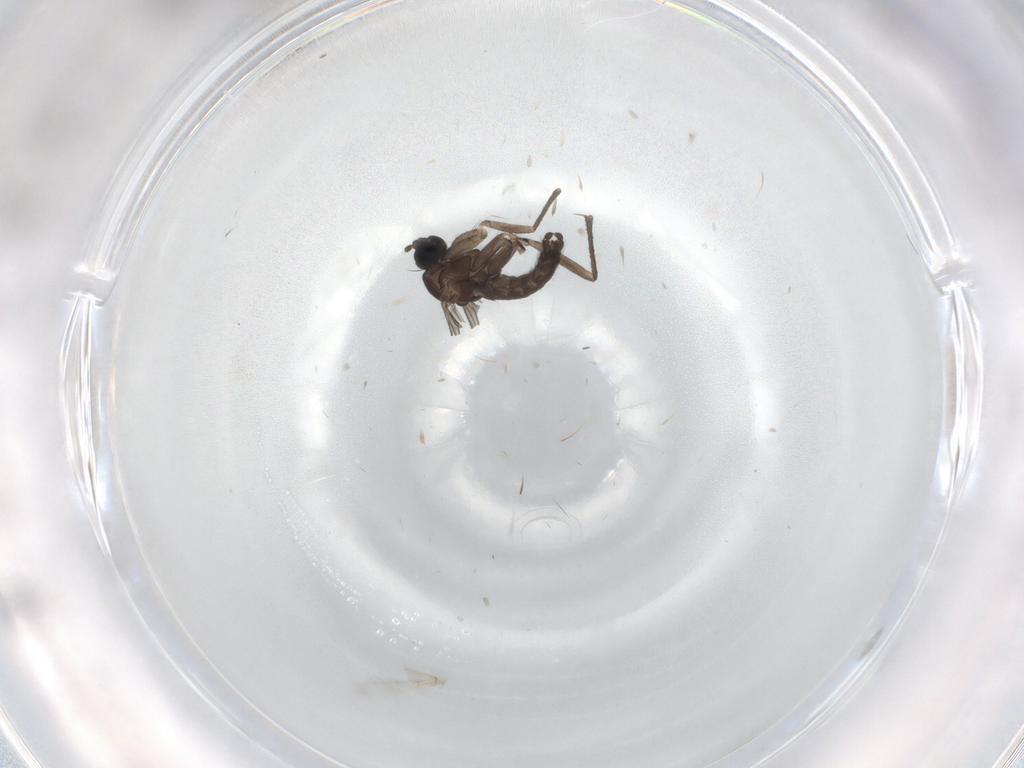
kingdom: Animalia
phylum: Arthropoda
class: Insecta
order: Diptera
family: Sciaridae
